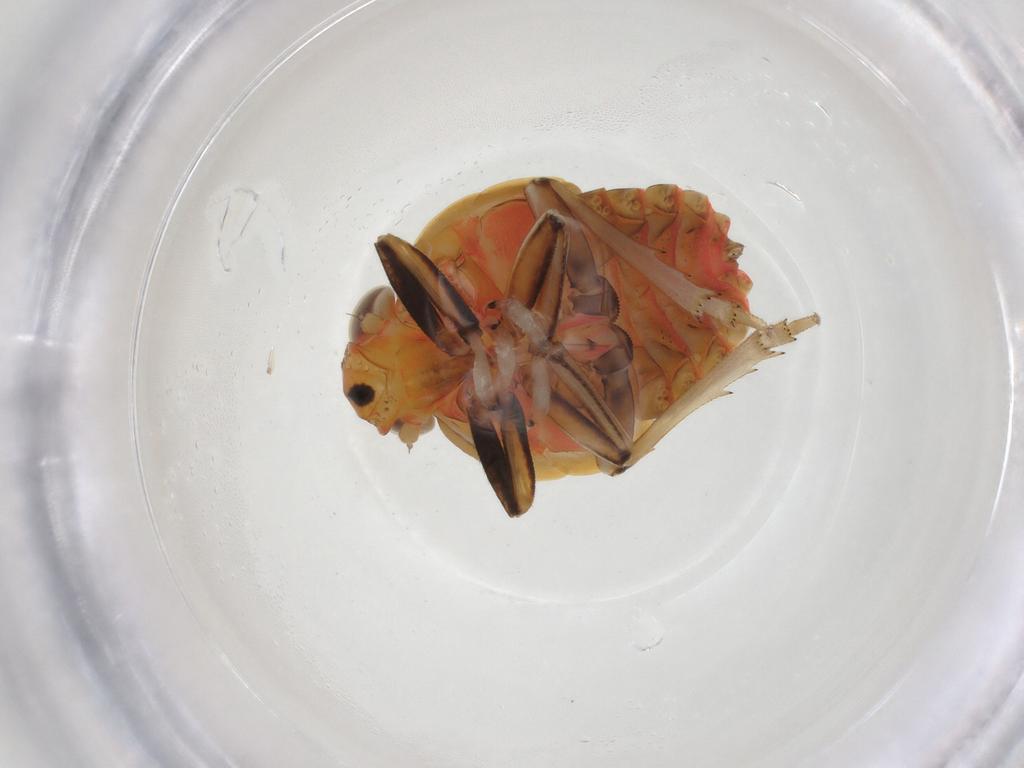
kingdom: Animalia
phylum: Arthropoda
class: Insecta
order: Hemiptera
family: Issidae
